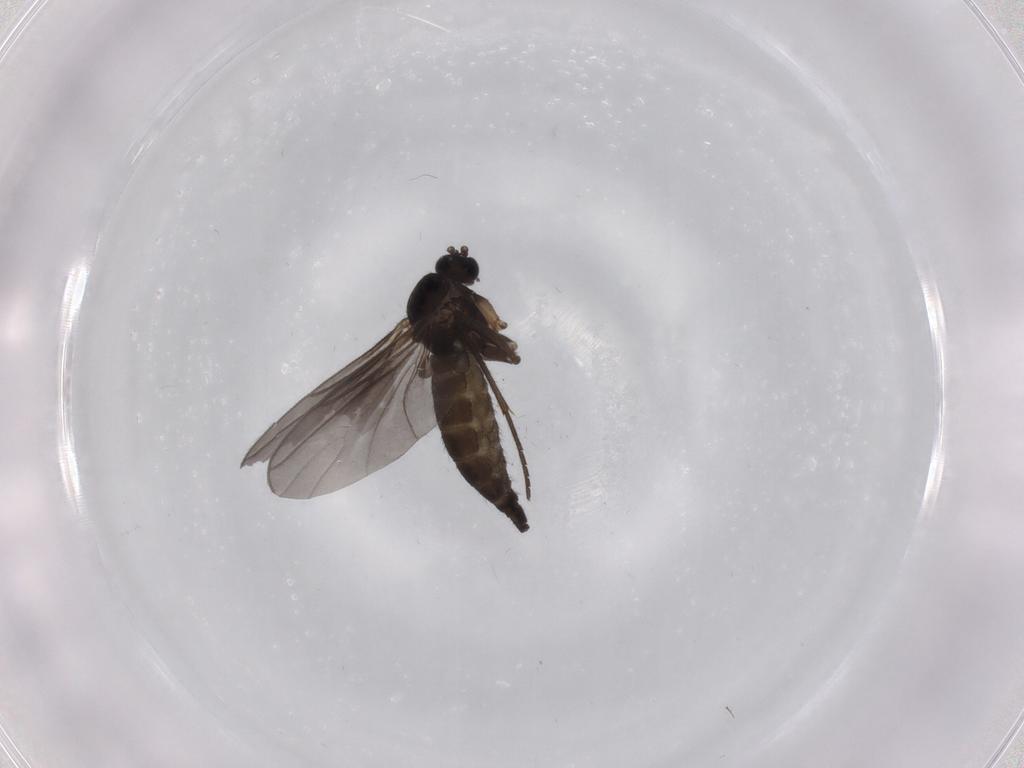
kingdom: Animalia
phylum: Arthropoda
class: Insecta
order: Diptera
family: Sciaridae
